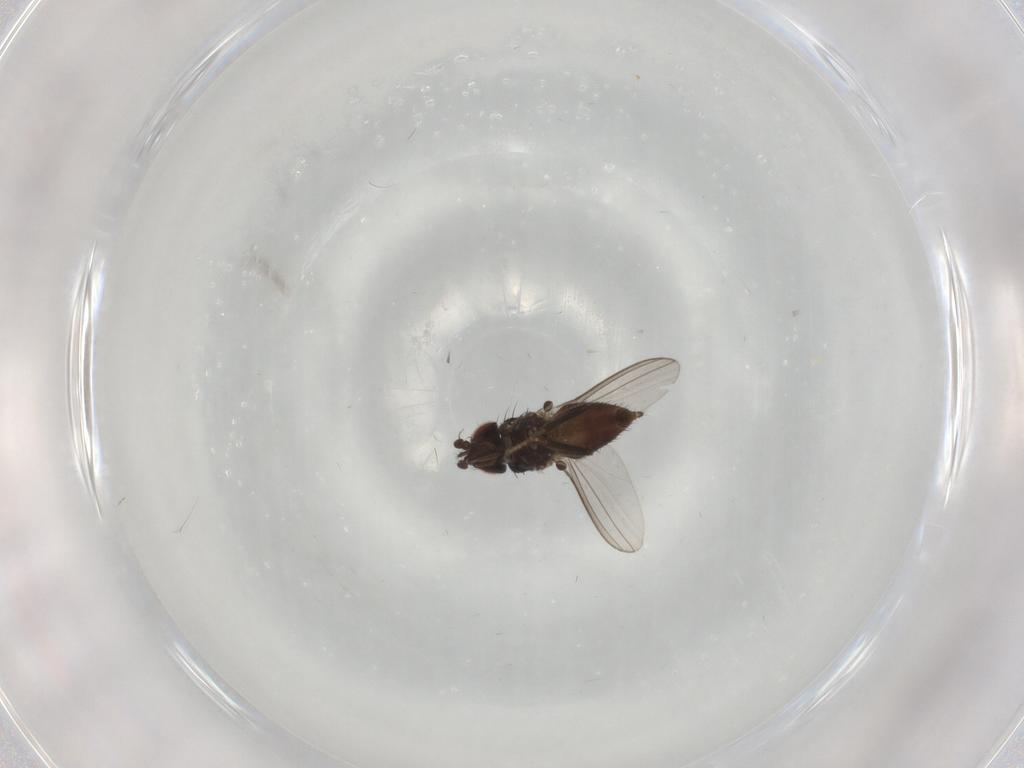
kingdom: Animalia
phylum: Arthropoda
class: Insecta
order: Diptera
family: Milichiidae
